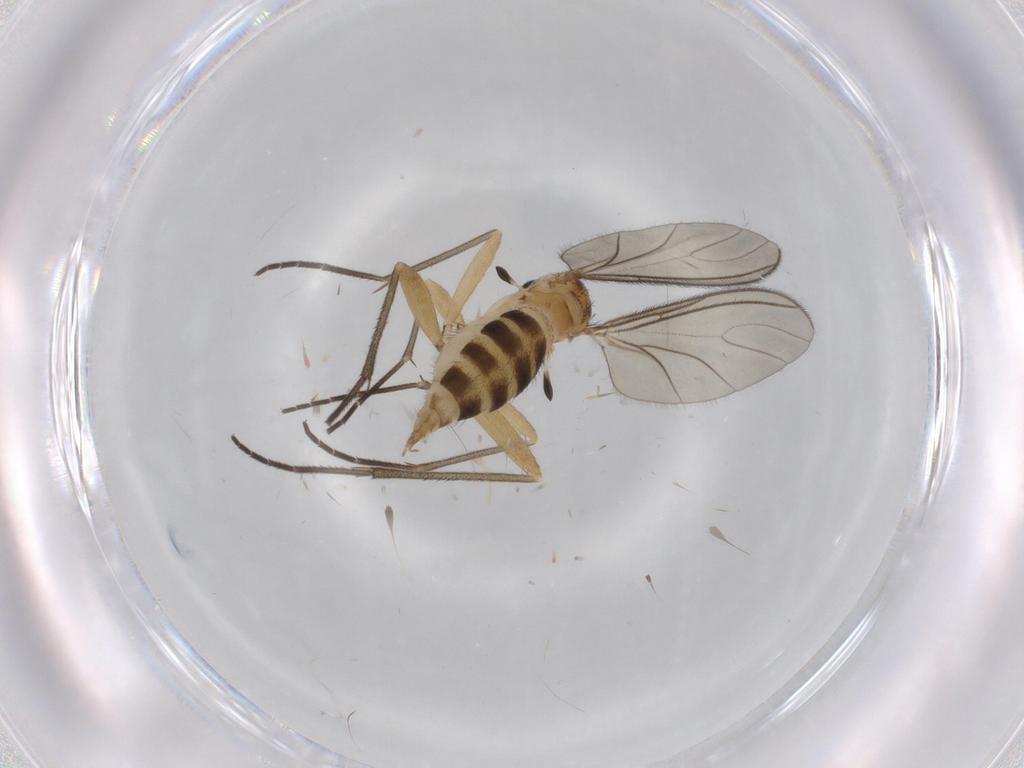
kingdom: Animalia
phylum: Arthropoda
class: Insecta
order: Diptera
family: Sciaridae
